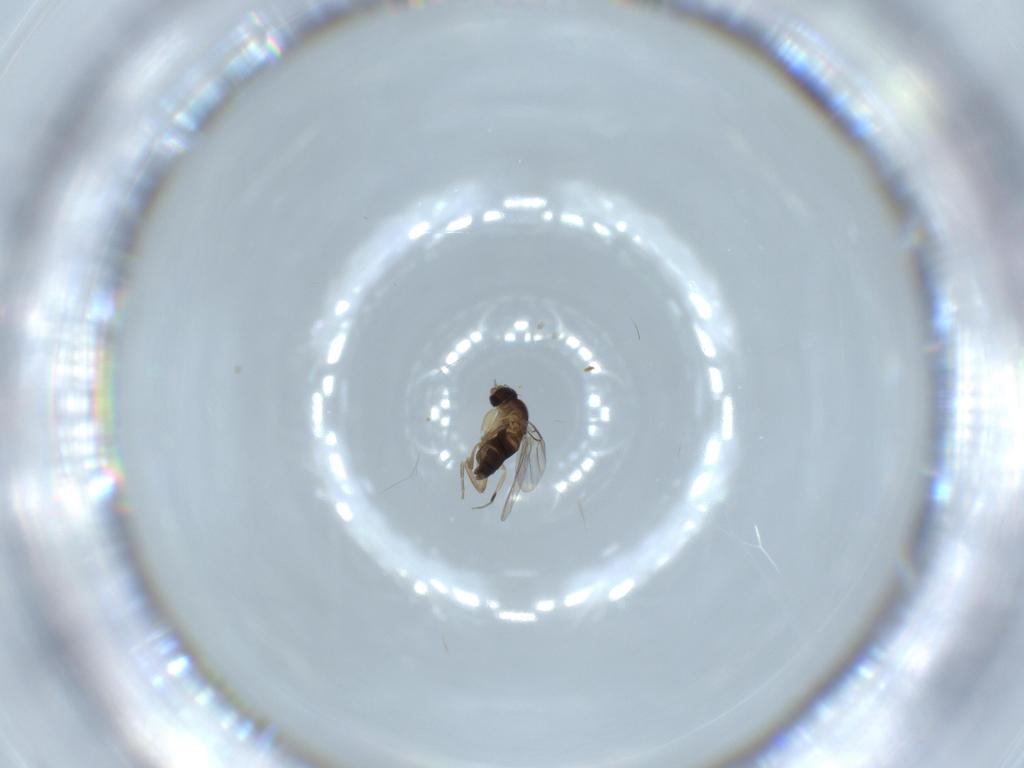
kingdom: Animalia
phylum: Arthropoda
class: Insecta
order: Diptera
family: Phoridae
